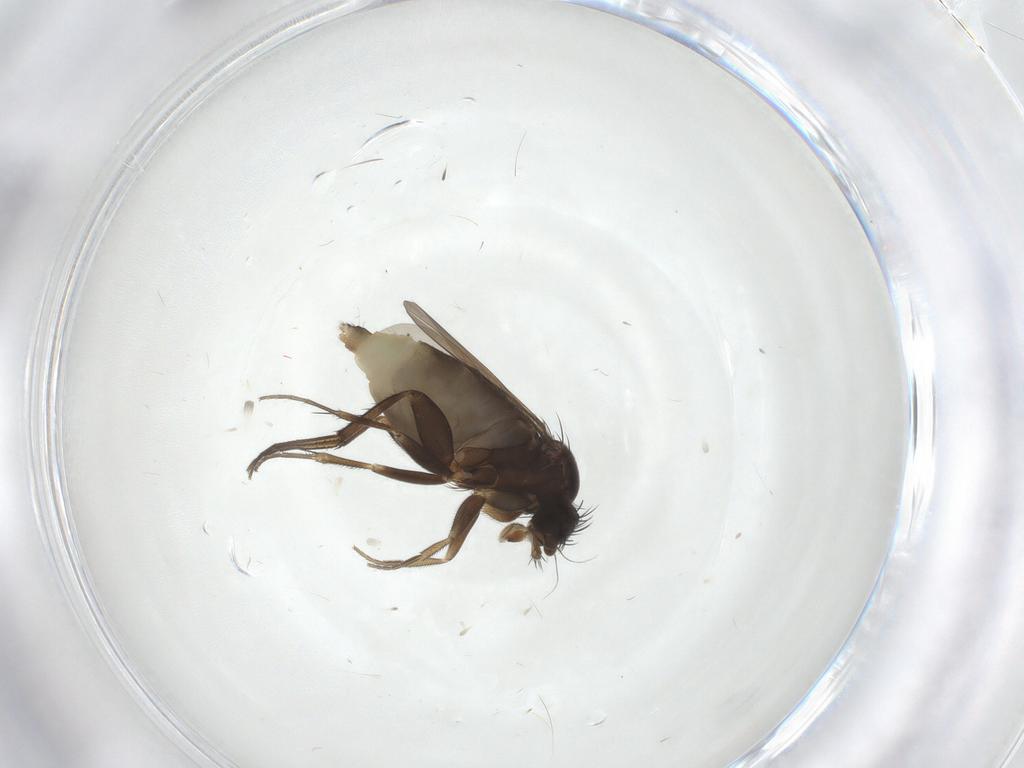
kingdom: Animalia
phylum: Arthropoda
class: Insecta
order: Diptera
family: Phoridae
